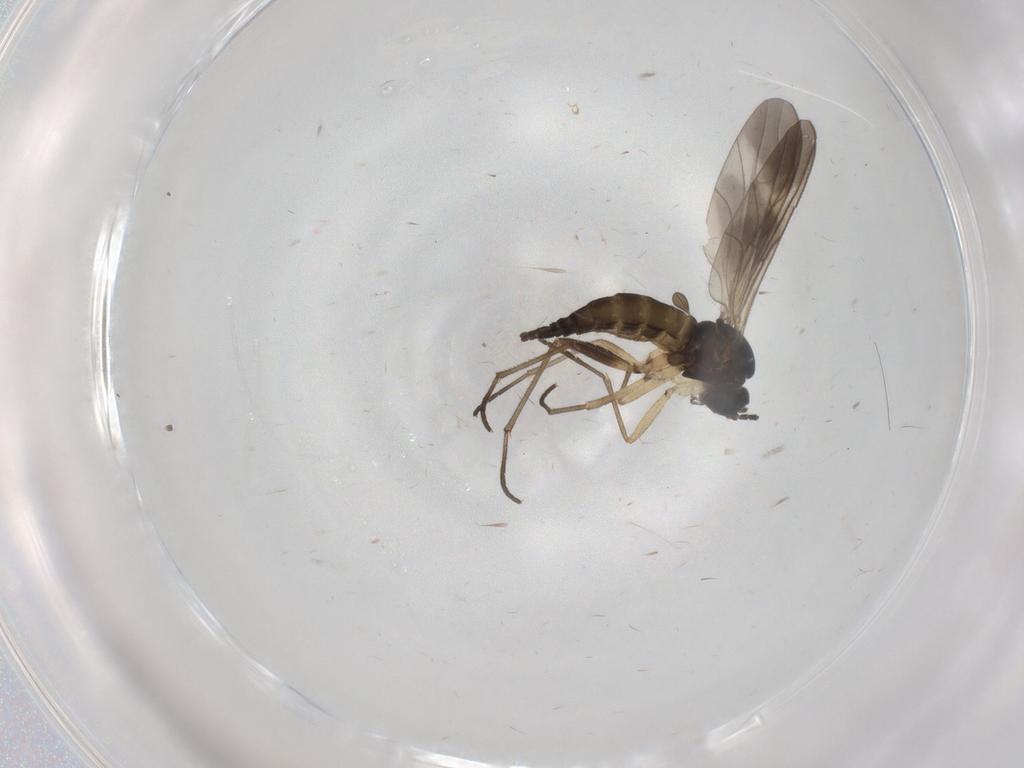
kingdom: Animalia
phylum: Arthropoda
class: Insecta
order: Diptera
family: Sciaridae
